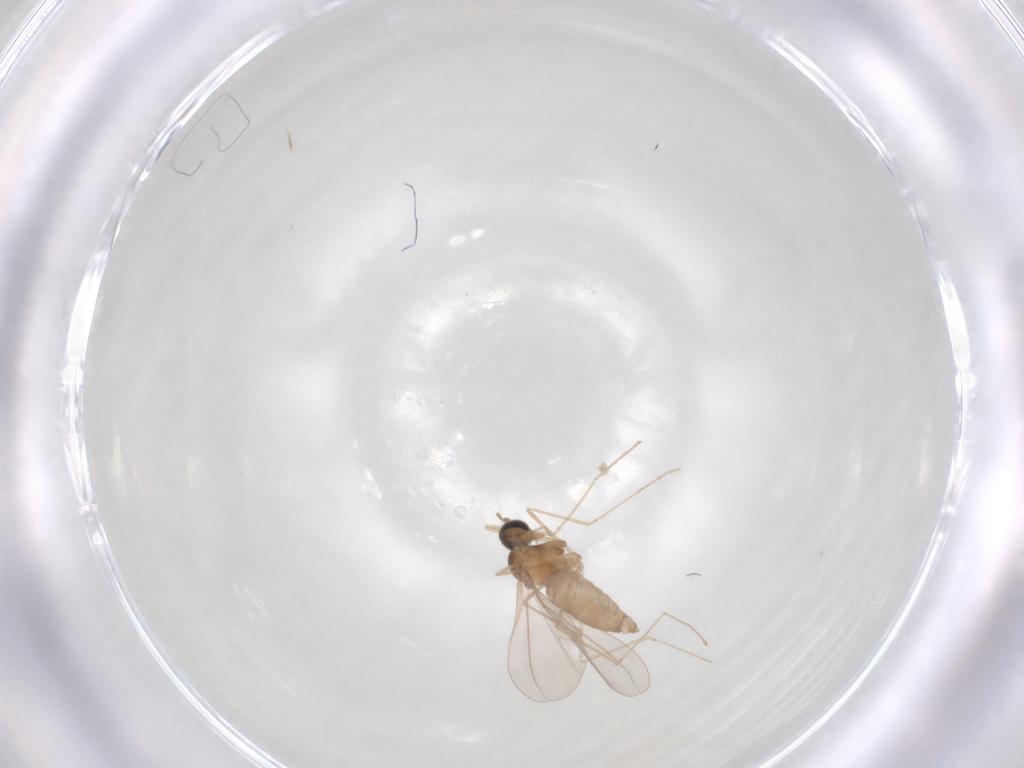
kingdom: Animalia
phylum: Arthropoda
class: Insecta
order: Diptera
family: Cecidomyiidae
